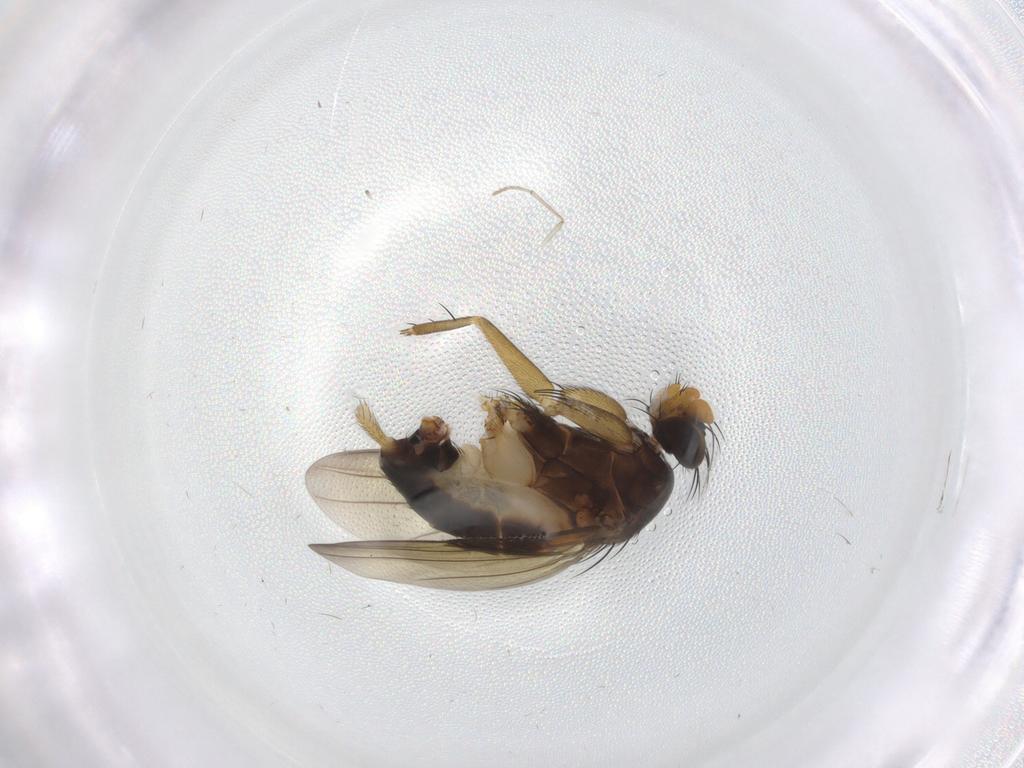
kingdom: Animalia
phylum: Arthropoda
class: Insecta
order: Diptera
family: Phoridae
